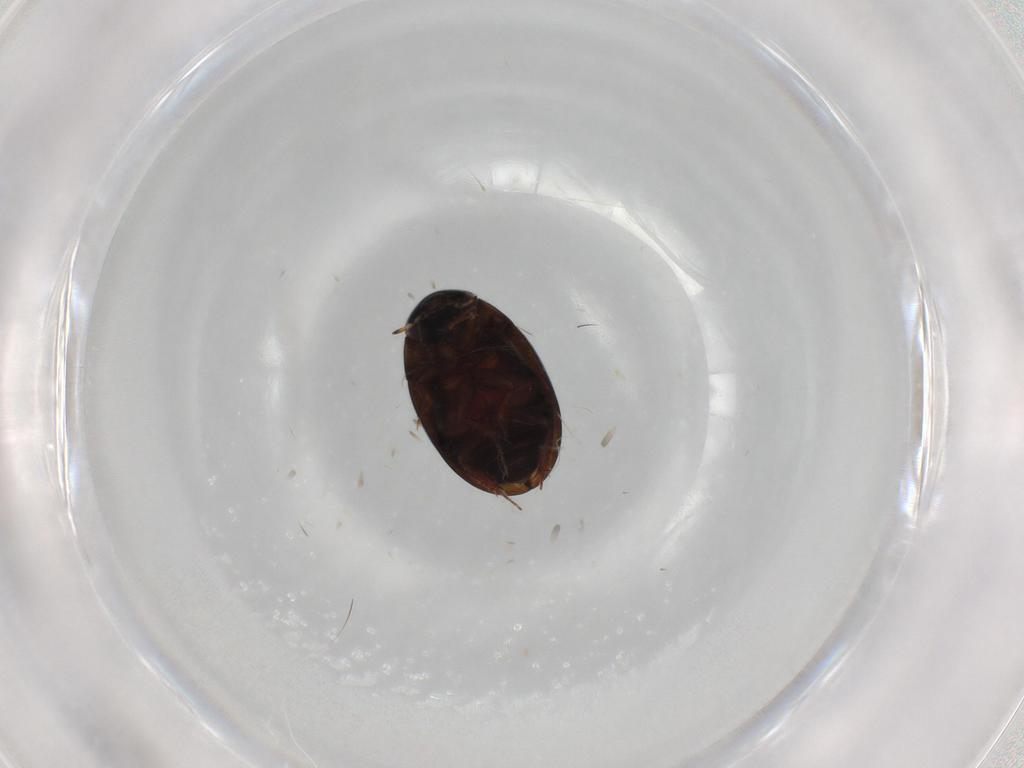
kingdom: Animalia
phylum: Arthropoda
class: Insecta
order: Coleoptera
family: Hydrophilidae
